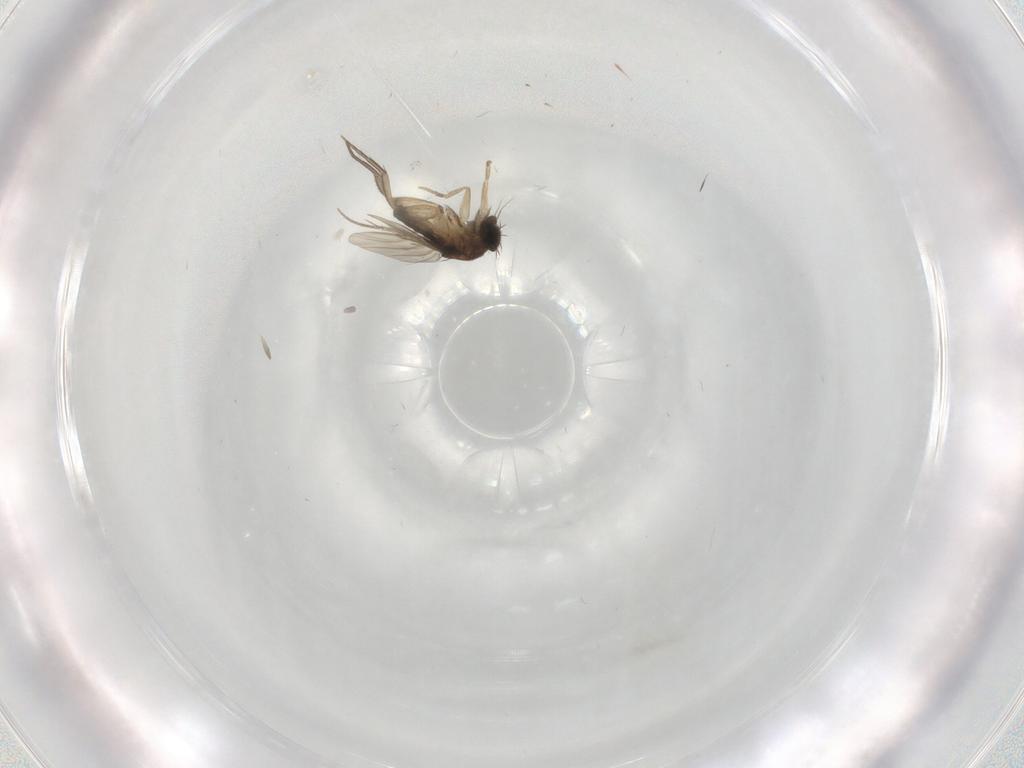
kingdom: Animalia
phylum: Arthropoda
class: Insecta
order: Diptera
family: Phoridae
